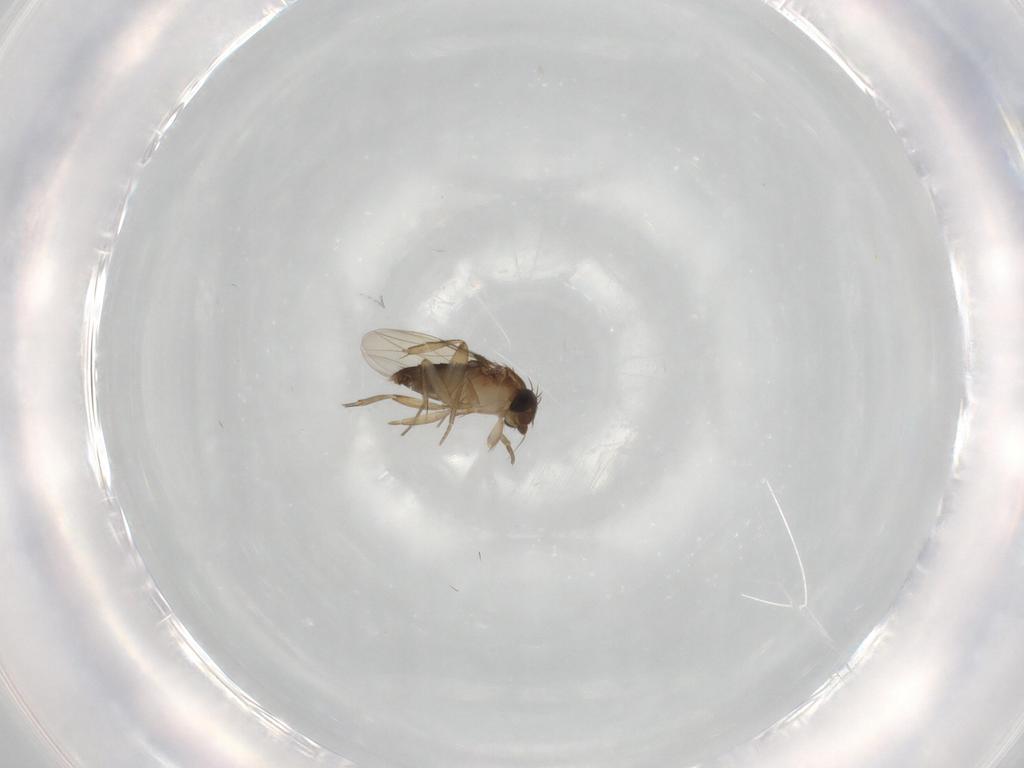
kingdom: Animalia
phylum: Arthropoda
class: Insecta
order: Diptera
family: Phoridae
